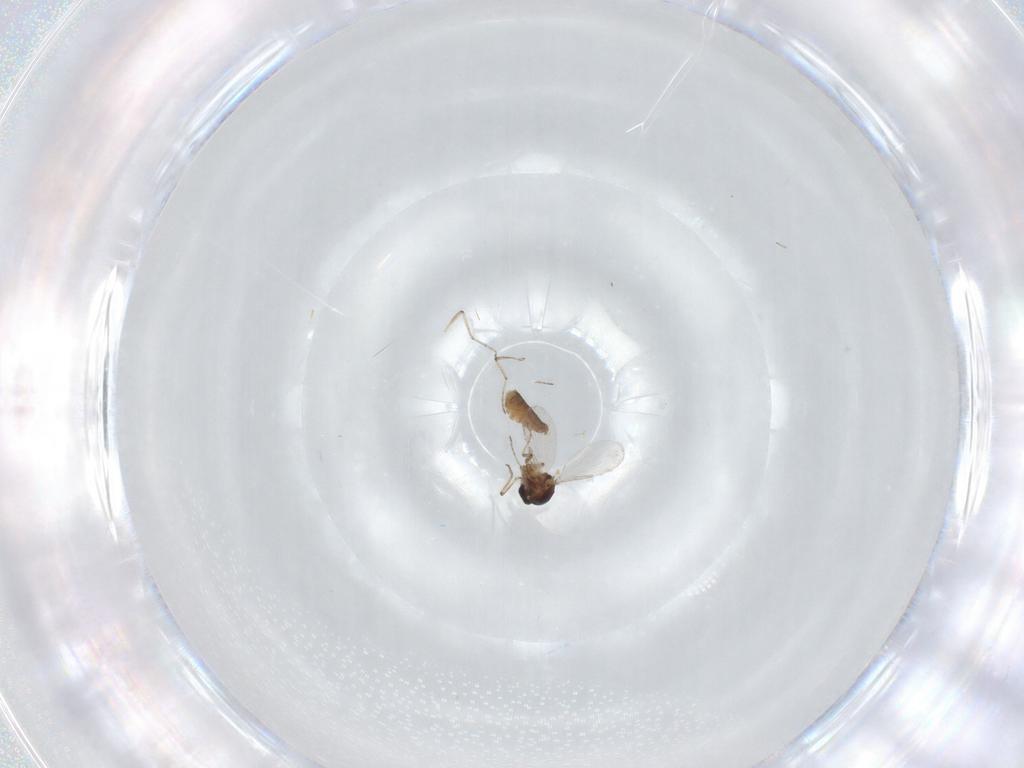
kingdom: Animalia
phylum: Arthropoda
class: Insecta
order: Diptera
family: Ceratopogonidae
